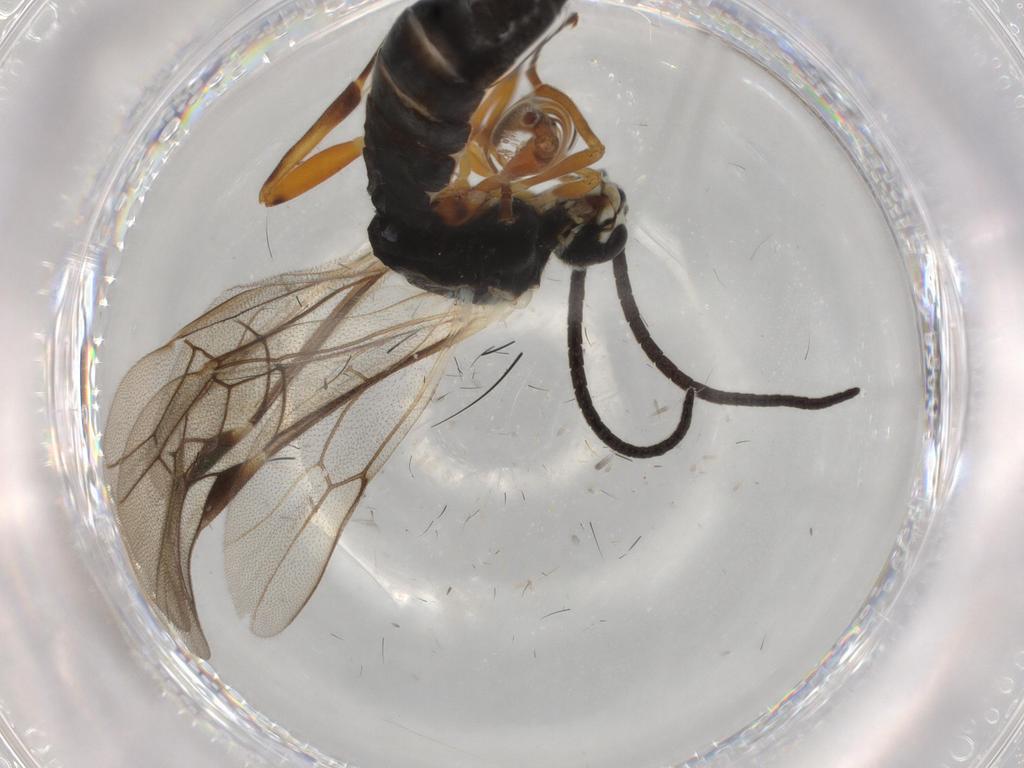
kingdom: Animalia
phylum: Arthropoda
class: Insecta
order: Hymenoptera
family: Ichneumonidae
